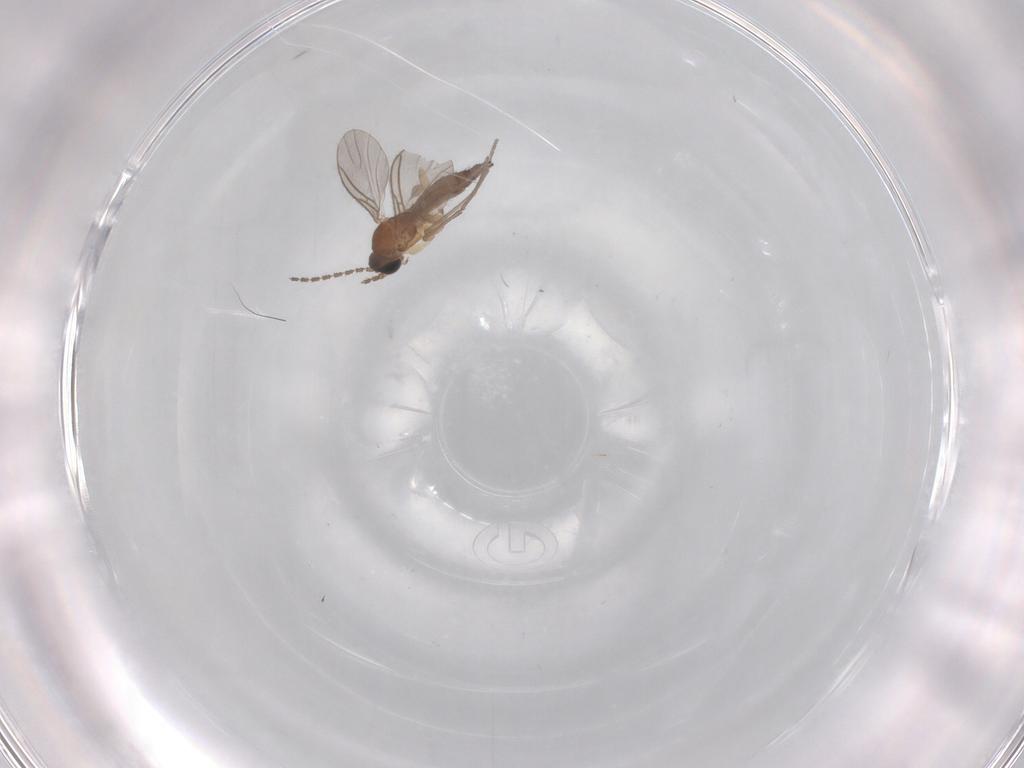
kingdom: Animalia
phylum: Arthropoda
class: Insecta
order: Diptera
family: Sciaridae
